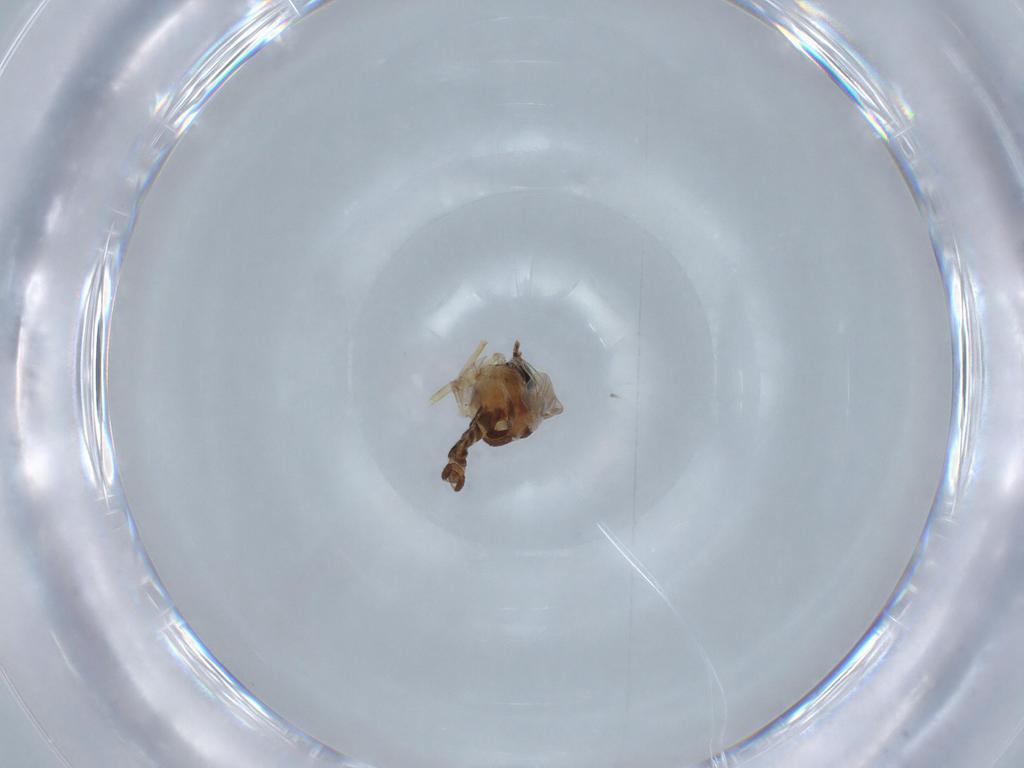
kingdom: Animalia
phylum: Arthropoda
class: Insecta
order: Diptera
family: Ceratopogonidae
